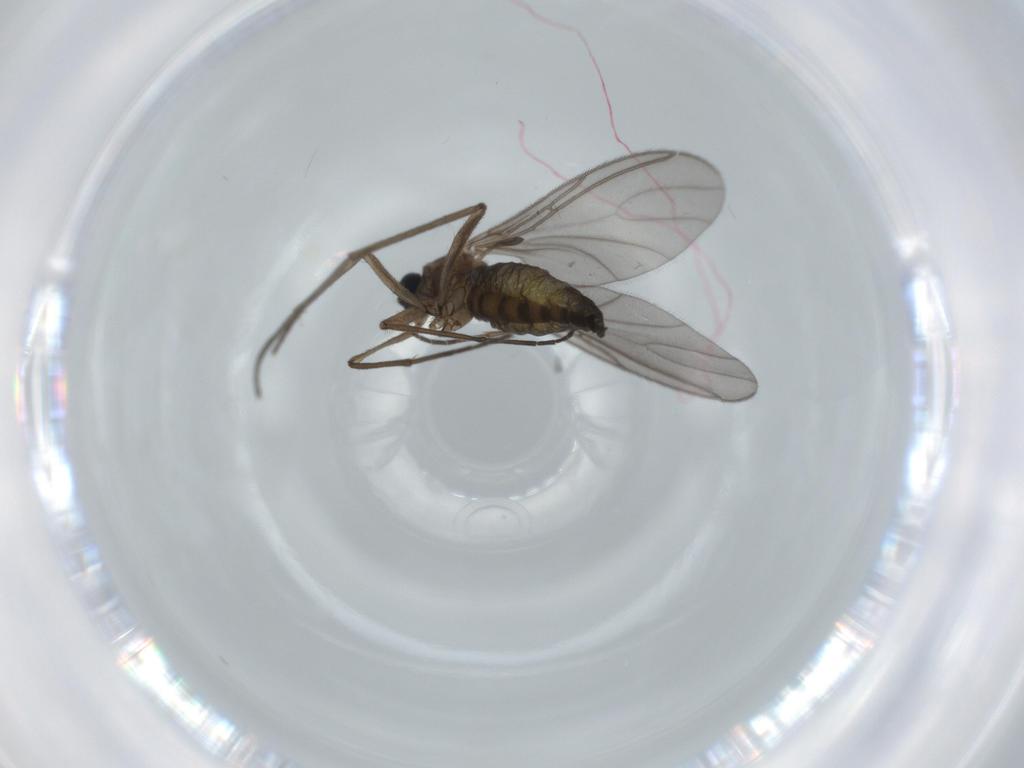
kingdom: Animalia
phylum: Arthropoda
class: Insecta
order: Diptera
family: Sciaridae
